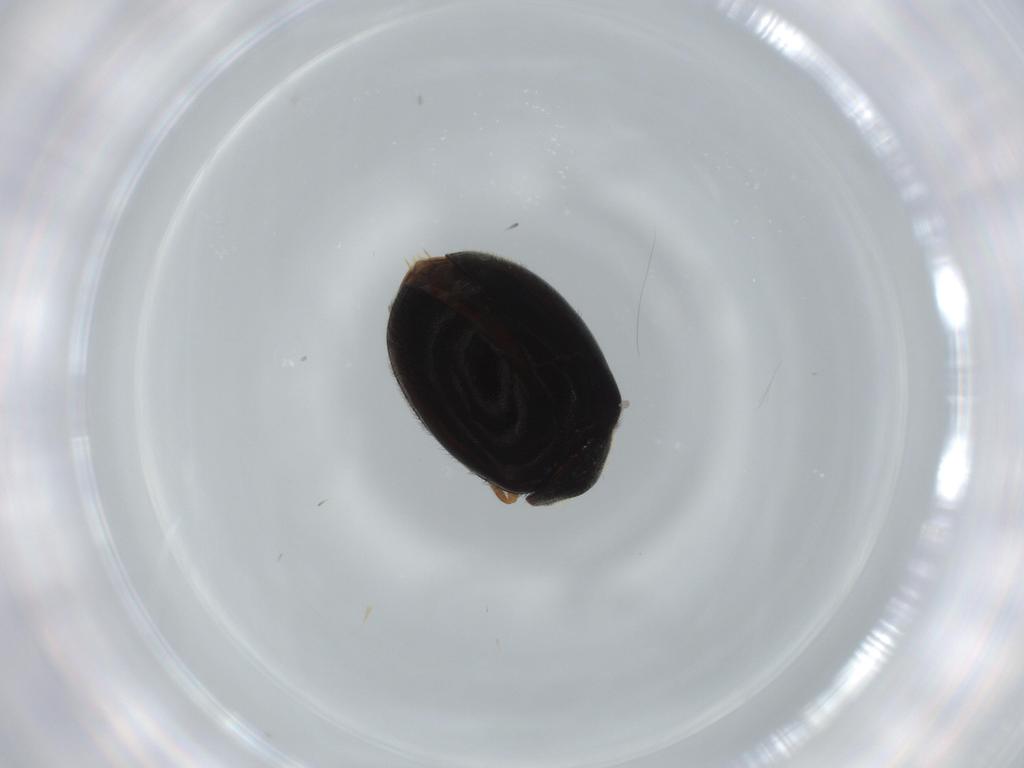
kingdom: Animalia
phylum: Arthropoda
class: Insecta
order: Coleoptera
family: Scirtidae
